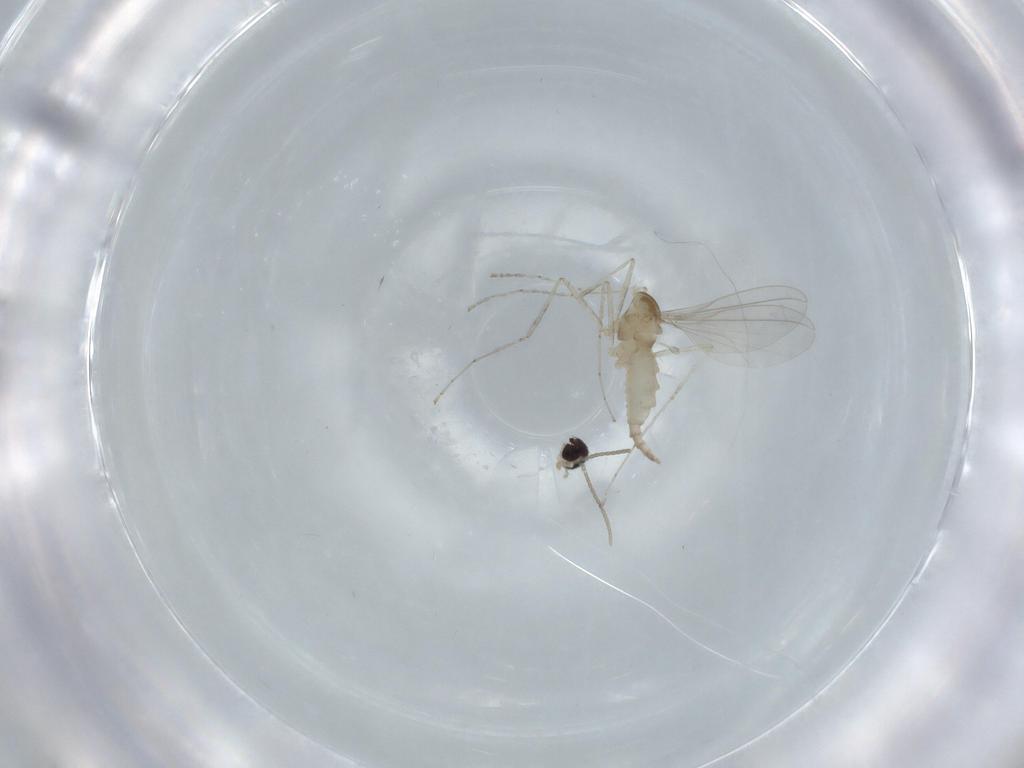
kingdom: Animalia
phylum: Arthropoda
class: Insecta
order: Diptera
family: Cecidomyiidae
